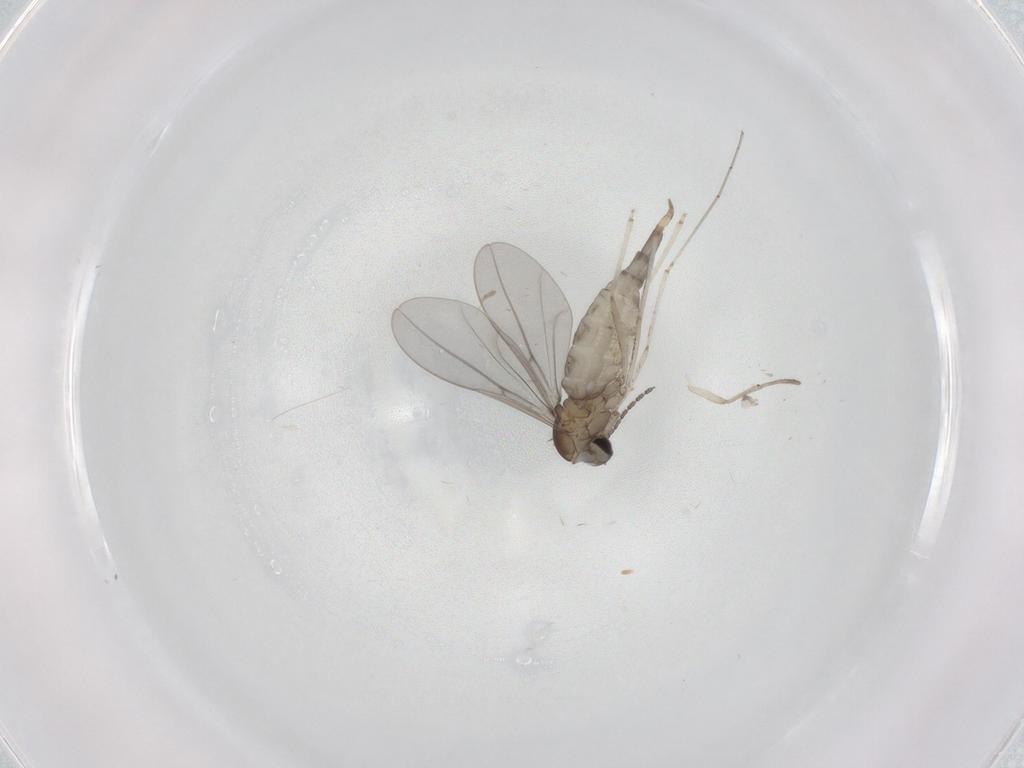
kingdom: Animalia
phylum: Arthropoda
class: Insecta
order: Diptera
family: Cecidomyiidae
